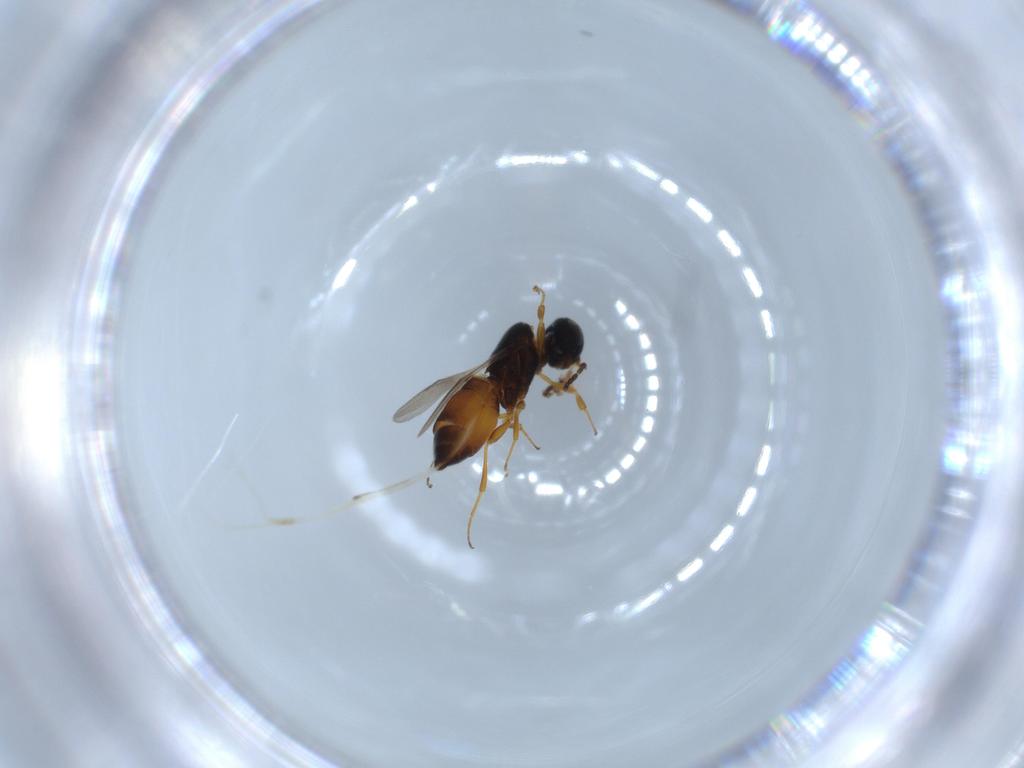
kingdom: Animalia
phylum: Arthropoda
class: Insecta
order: Hymenoptera
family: Scelionidae
